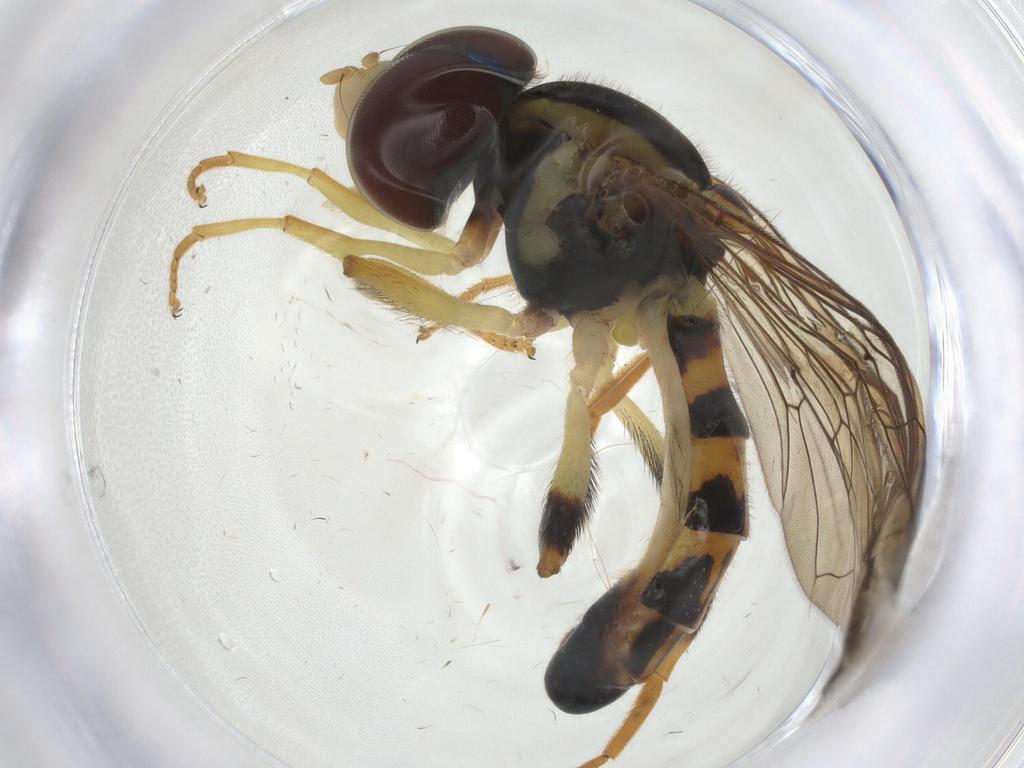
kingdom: Animalia
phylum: Arthropoda
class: Insecta
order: Diptera
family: Syrphidae
